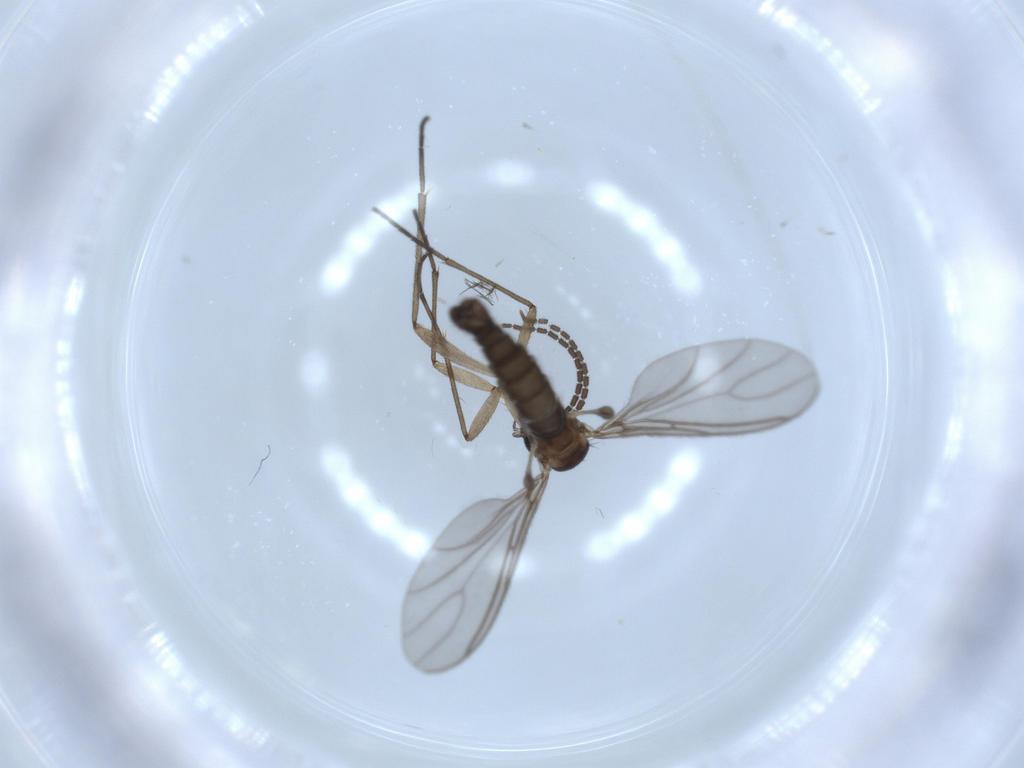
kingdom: Animalia
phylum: Arthropoda
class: Insecta
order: Diptera
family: Sciaridae
